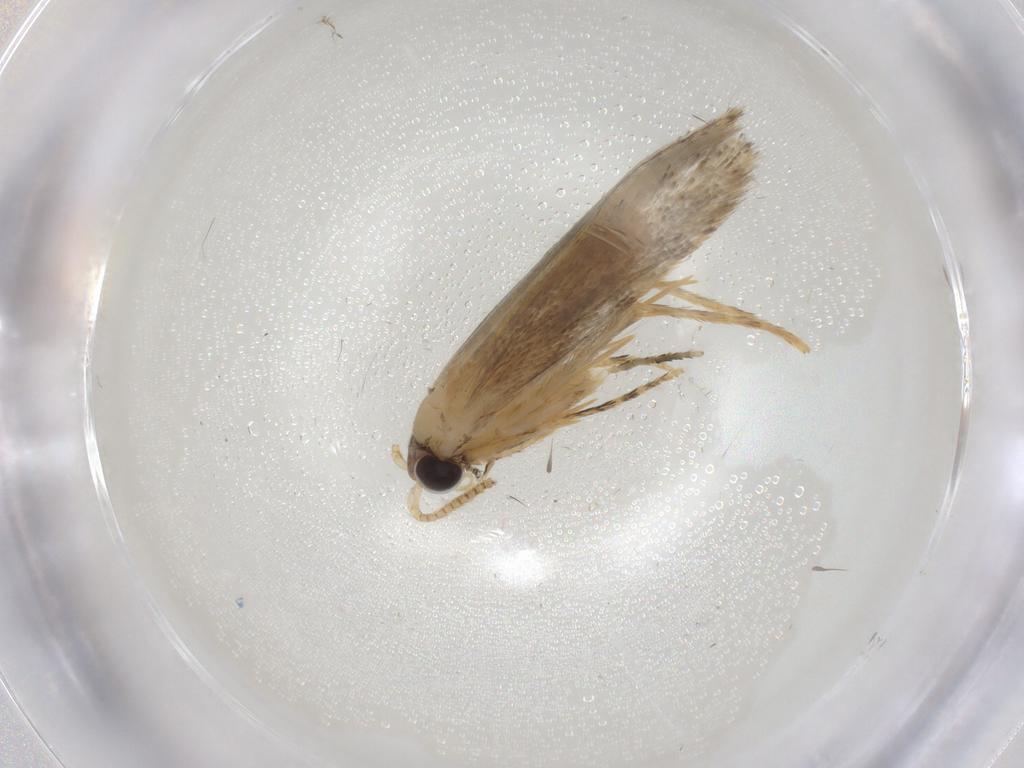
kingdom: Animalia
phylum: Arthropoda
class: Insecta
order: Lepidoptera
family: Tineidae
